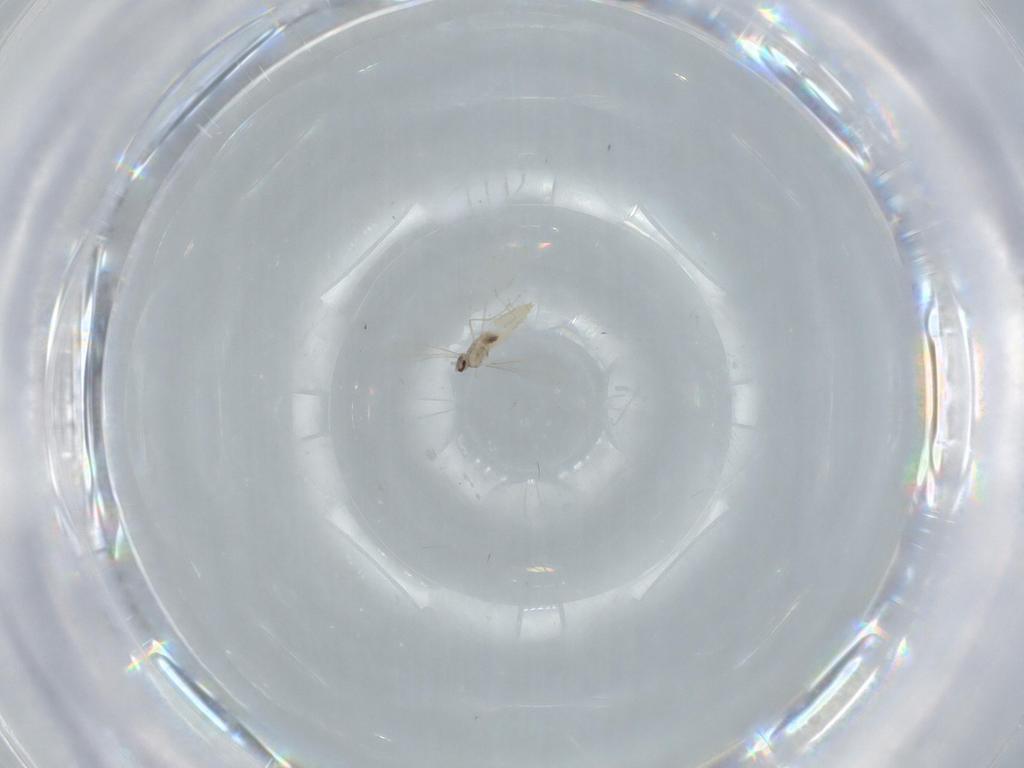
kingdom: Animalia
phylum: Arthropoda
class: Insecta
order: Diptera
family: Cecidomyiidae
